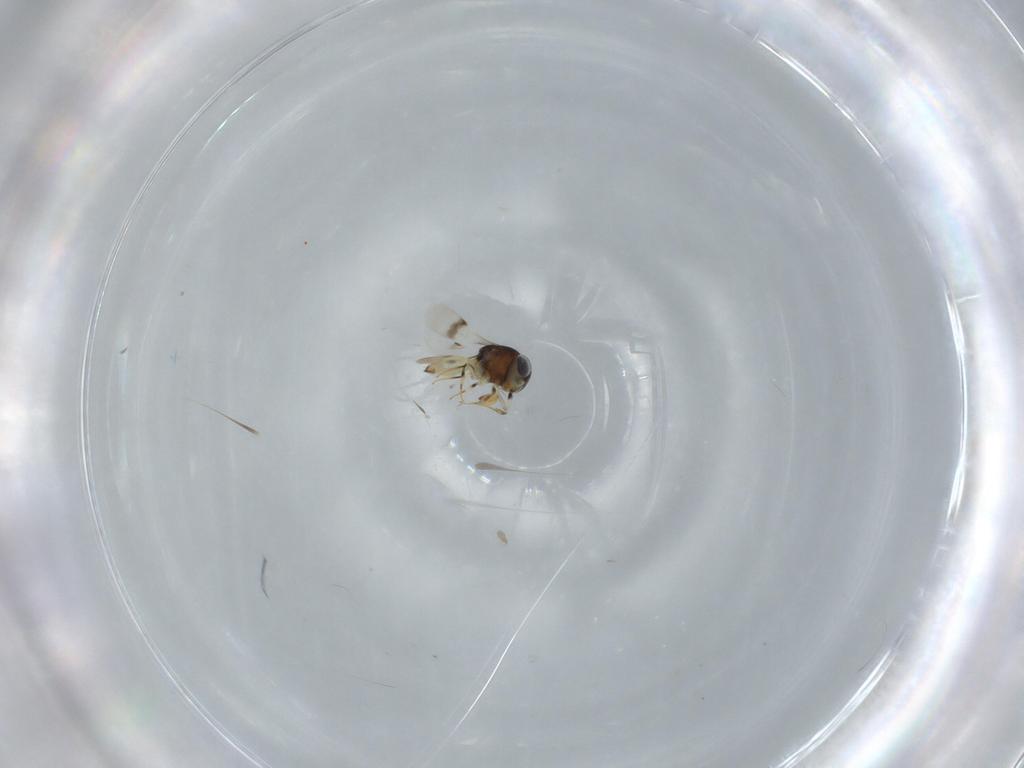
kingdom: Animalia
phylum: Arthropoda
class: Insecta
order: Hymenoptera
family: Scelionidae
